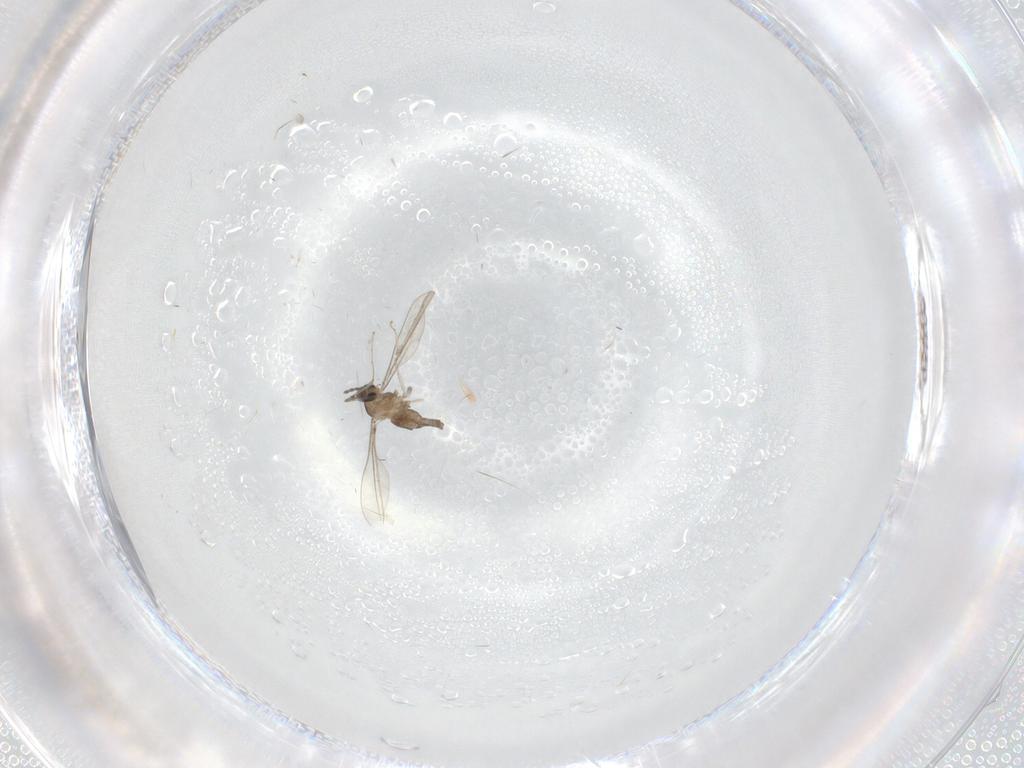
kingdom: Animalia
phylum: Arthropoda
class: Insecta
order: Diptera
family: Cecidomyiidae
